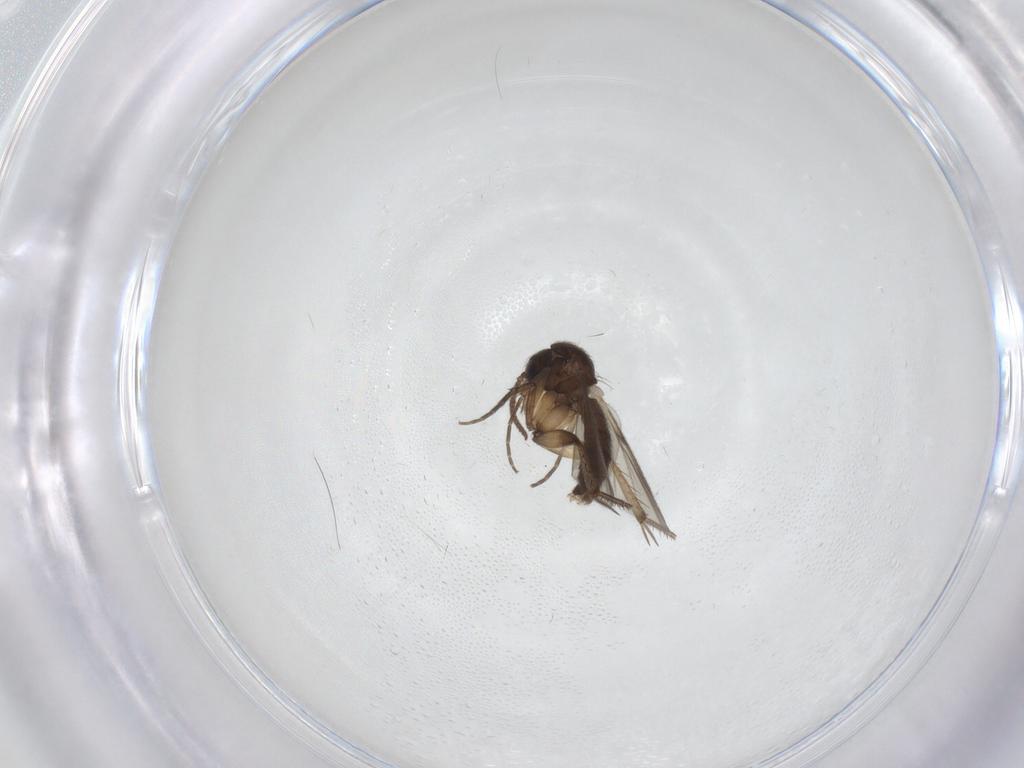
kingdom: Animalia
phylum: Arthropoda
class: Insecta
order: Diptera
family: Mycetophilidae
